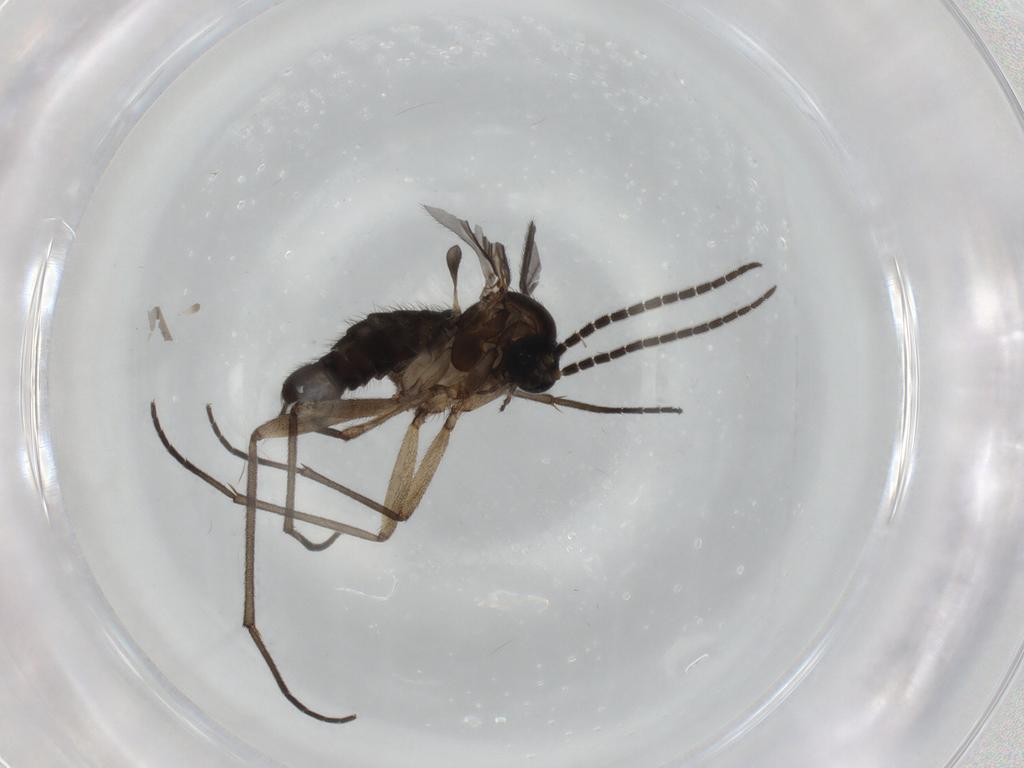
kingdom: Animalia
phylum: Arthropoda
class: Insecta
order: Diptera
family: Sciaridae
